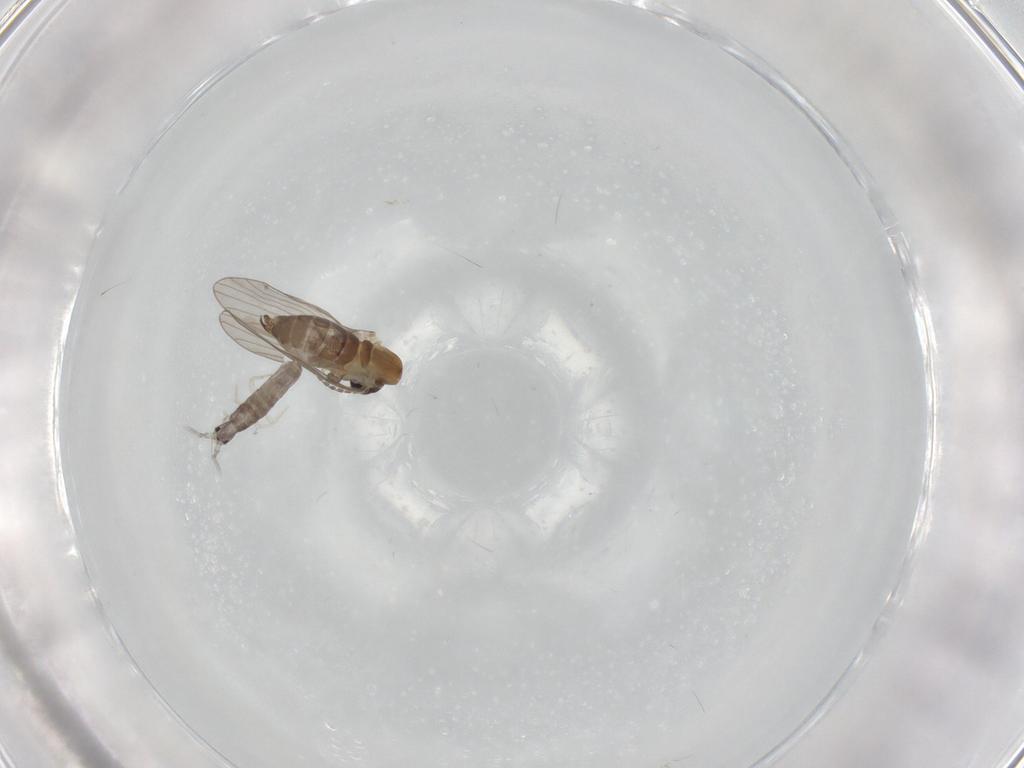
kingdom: Animalia
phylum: Arthropoda
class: Insecta
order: Diptera
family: Psychodidae
